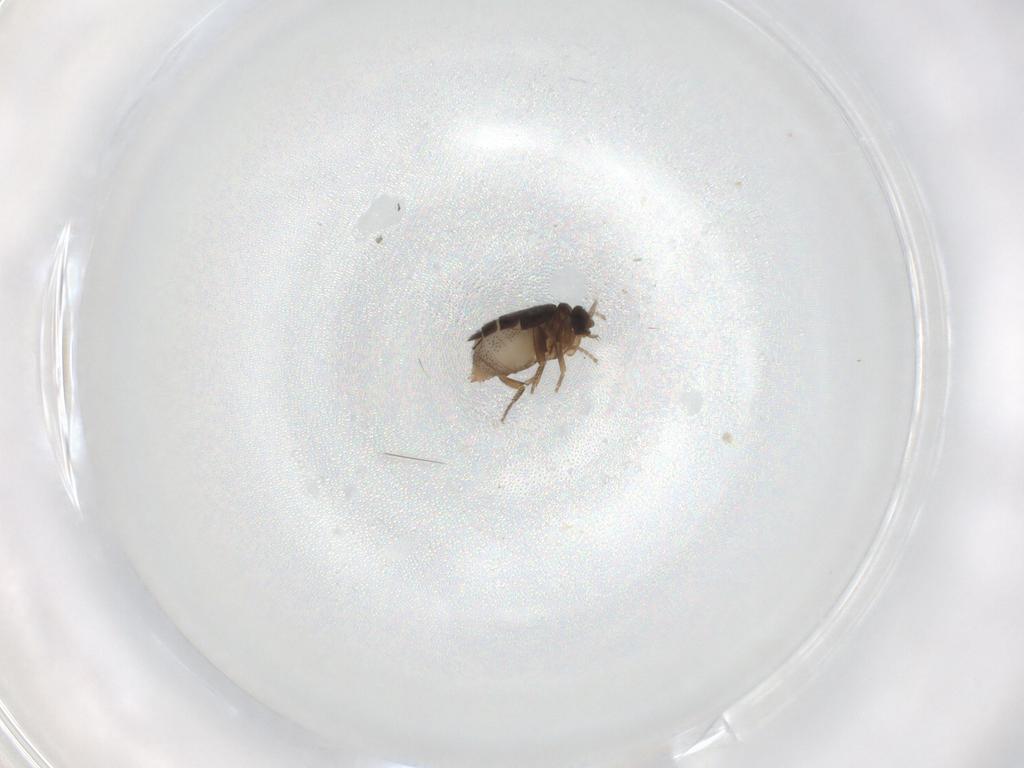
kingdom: Animalia
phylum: Arthropoda
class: Insecta
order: Diptera
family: Phoridae
